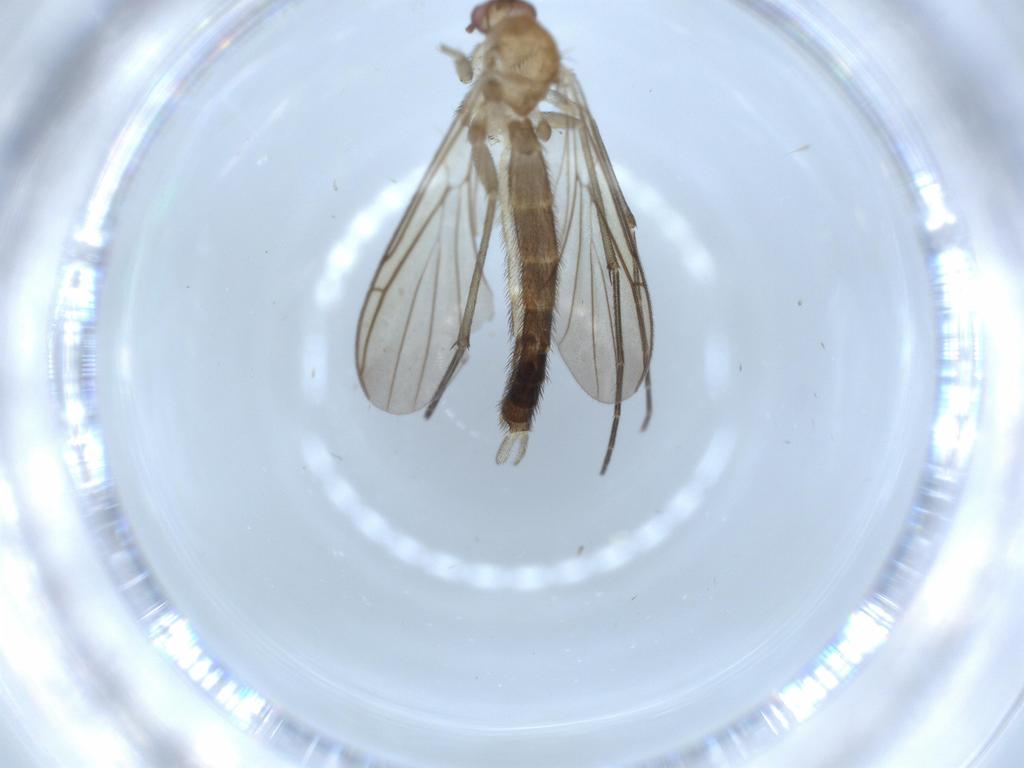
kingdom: Animalia
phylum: Arthropoda
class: Insecta
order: Diptera
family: Keroplatidae
